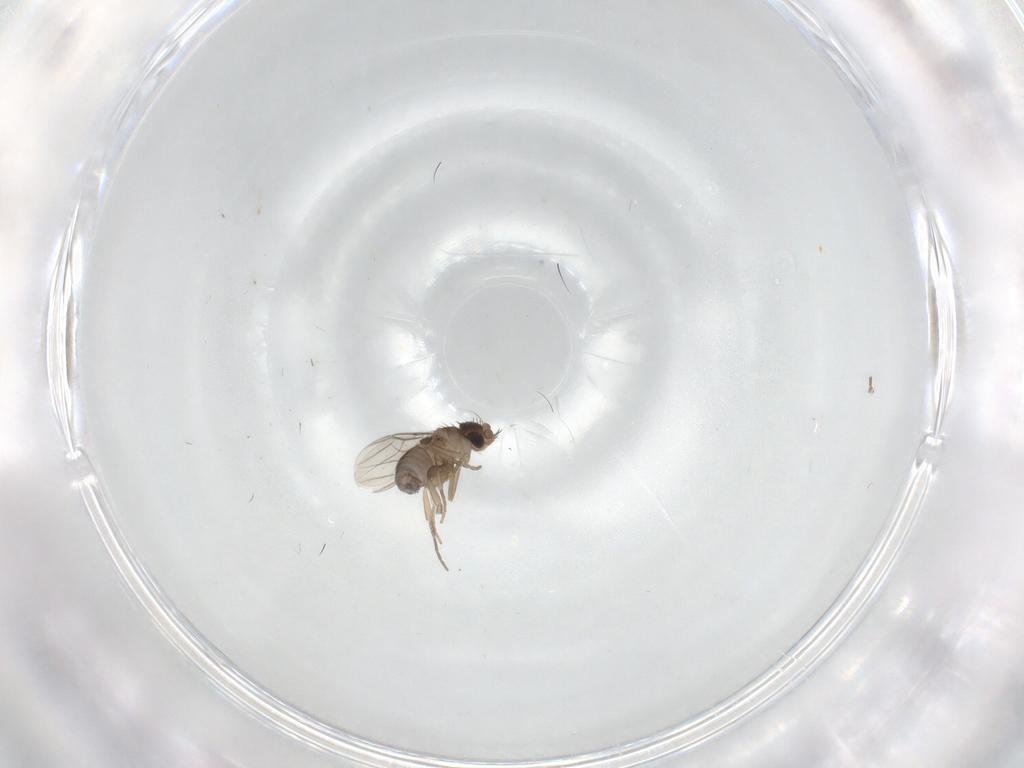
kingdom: Animalia
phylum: Arthropoda
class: Insecta
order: Diptera
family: Phoridae
